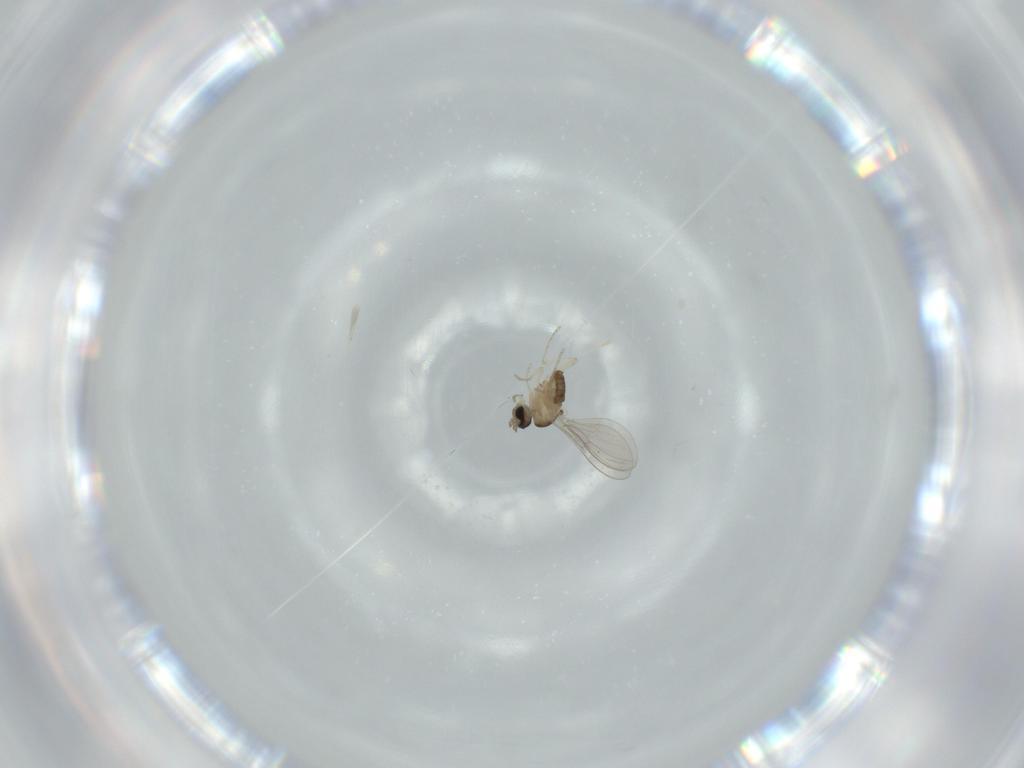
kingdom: Animalia
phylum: Arthropoda
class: Insecta
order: Diptera
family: Cecidomyiidae
